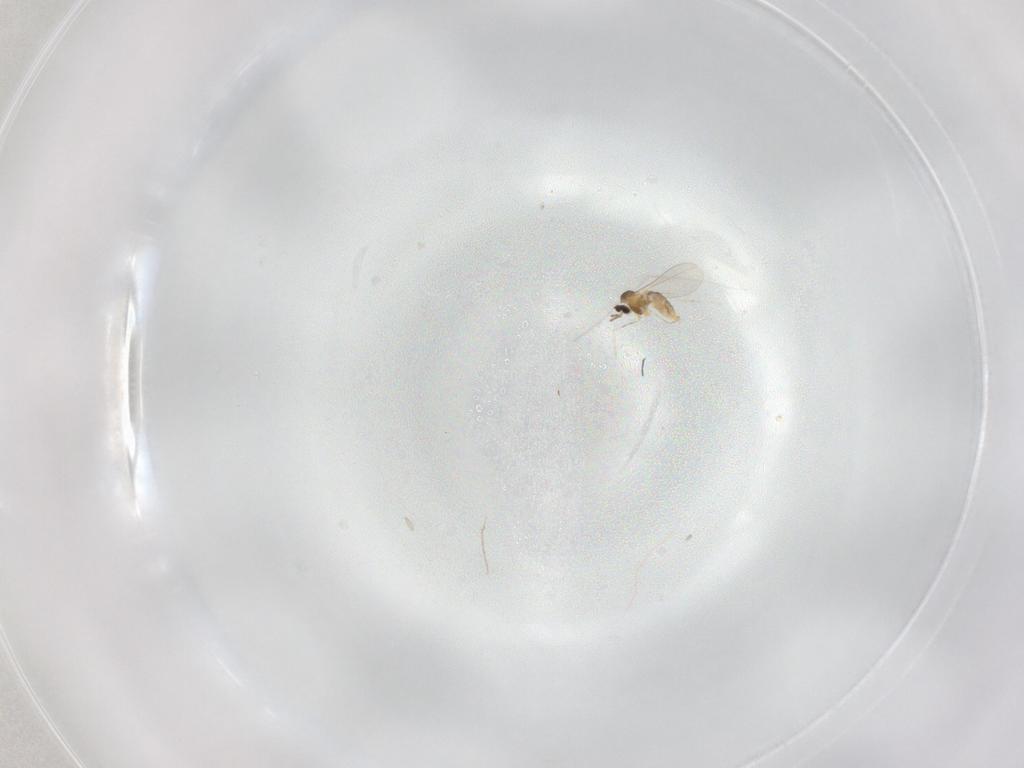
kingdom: Animalia
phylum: Arthropoda
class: Insecta
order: Diptera
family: Cecidomyiidae
